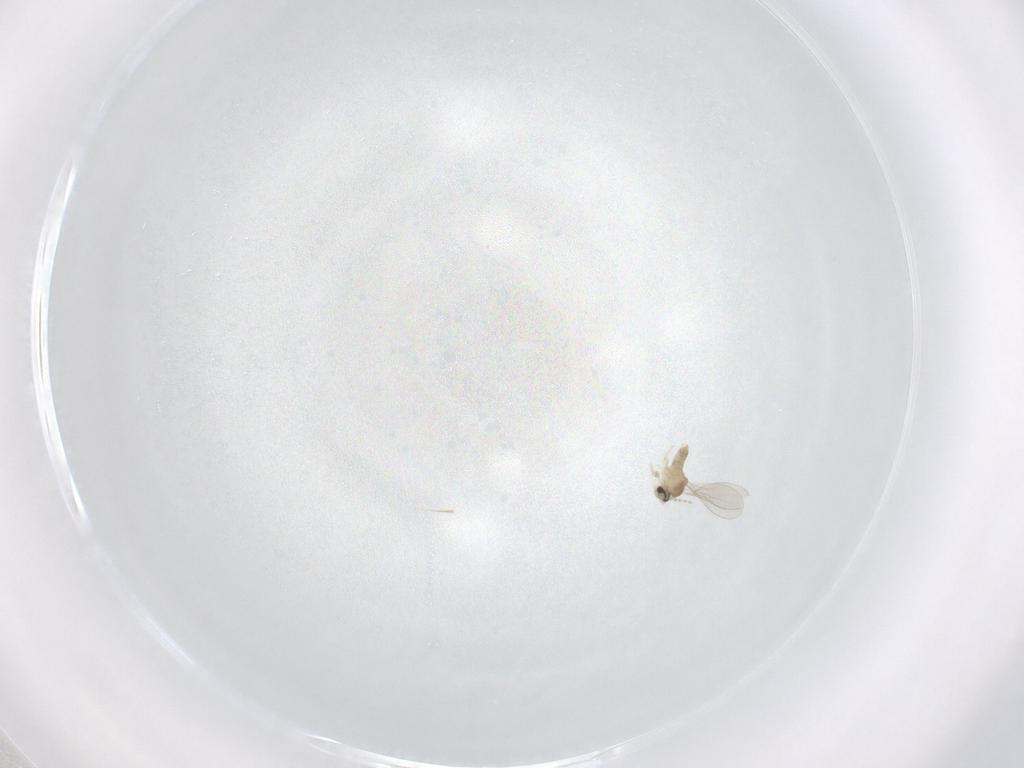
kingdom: Animalia
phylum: Arthropoda
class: Insecta
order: Diptera
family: Cecidomyiidae
